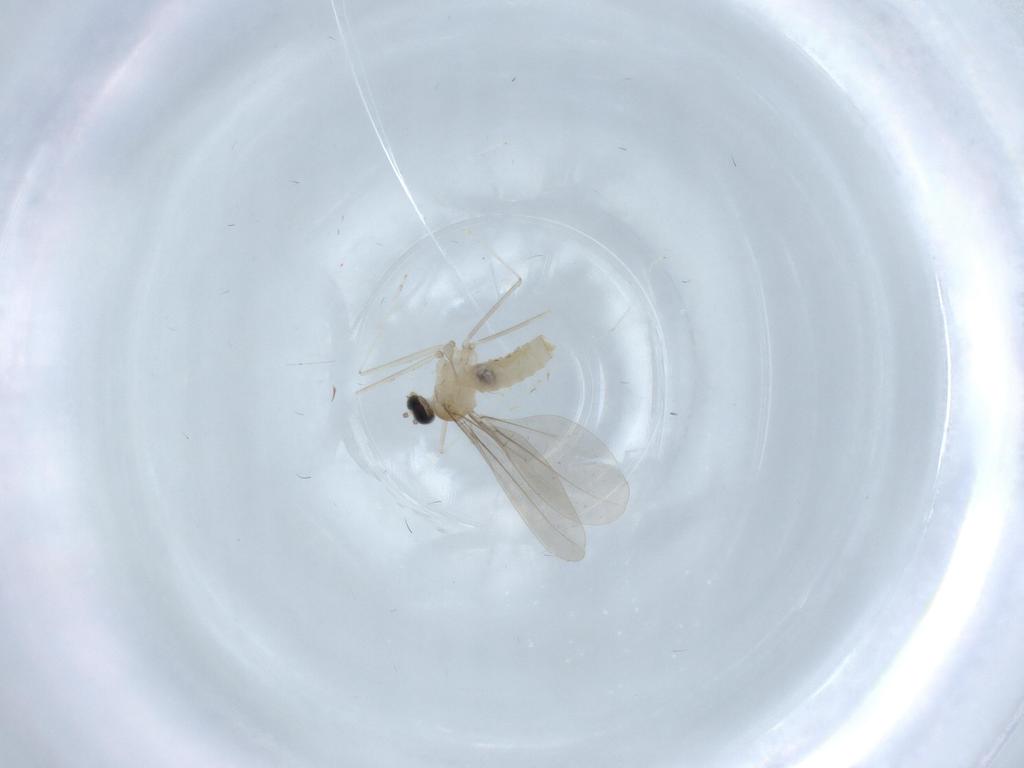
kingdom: Animalia
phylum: Arthropoda
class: Insecta
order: Diptera
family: Cecidomyiidae
